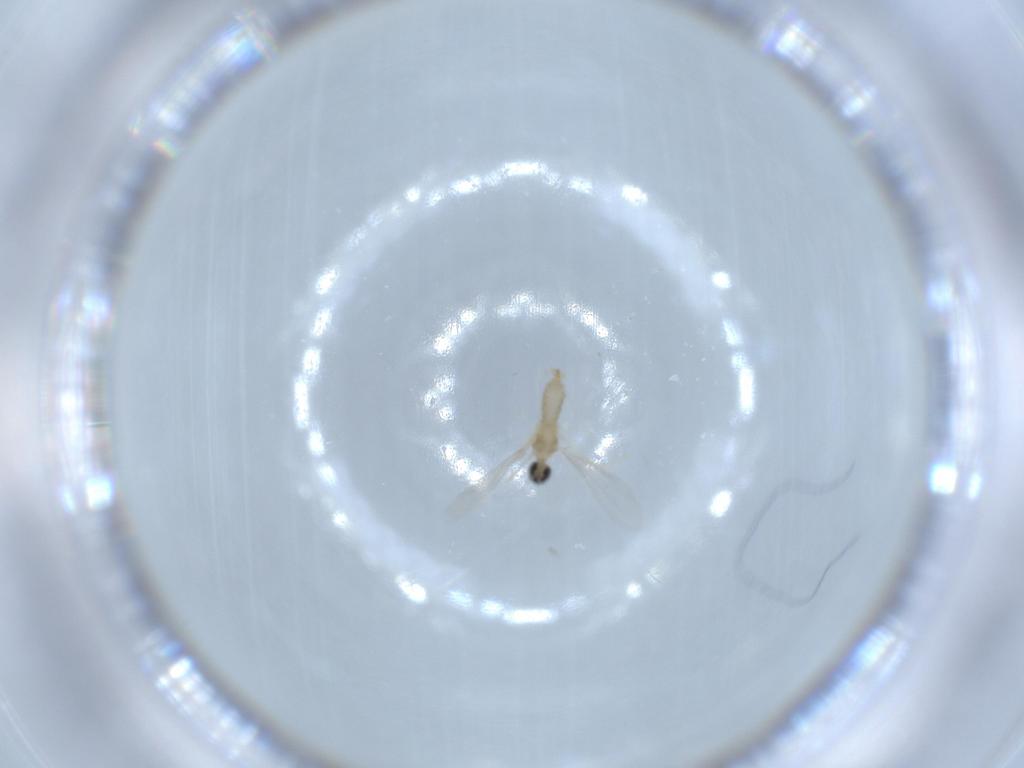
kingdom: Animalia
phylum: Arthropoda
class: Insecta
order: Diptera
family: Cecidomyiidae
